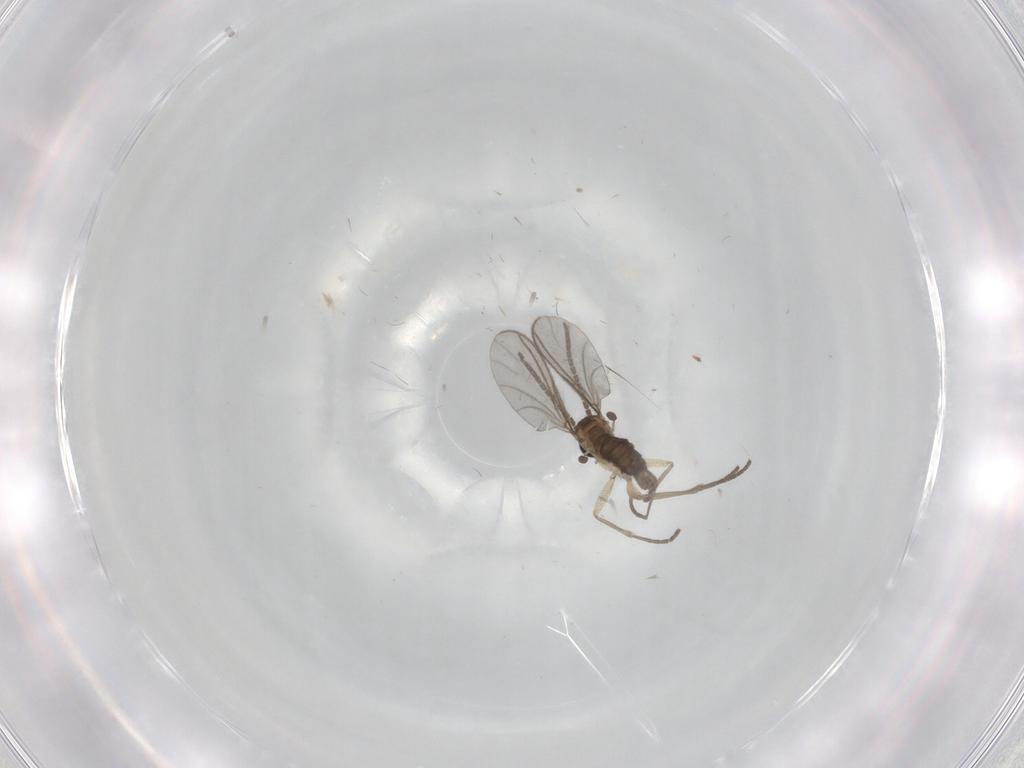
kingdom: Animalia
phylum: Arthropoda
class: Insecta
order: Diptera
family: Sciaridae
